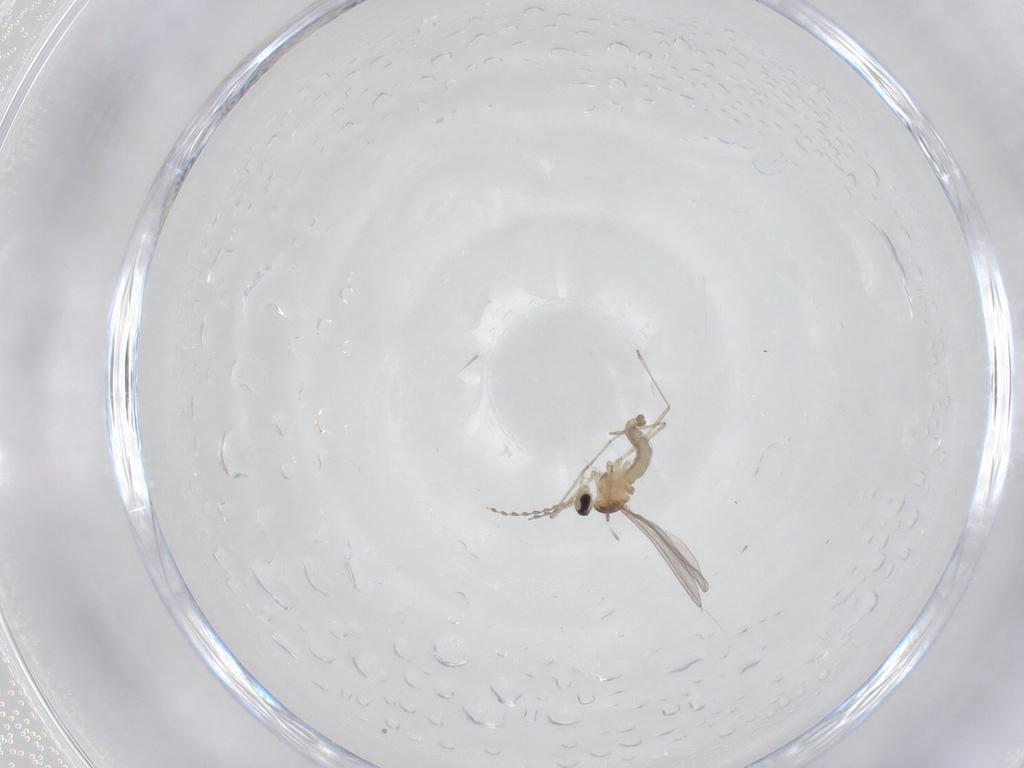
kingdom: Animalia
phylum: Arthropoda
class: Insecta
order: Diptera
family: Cecidomyiidae
